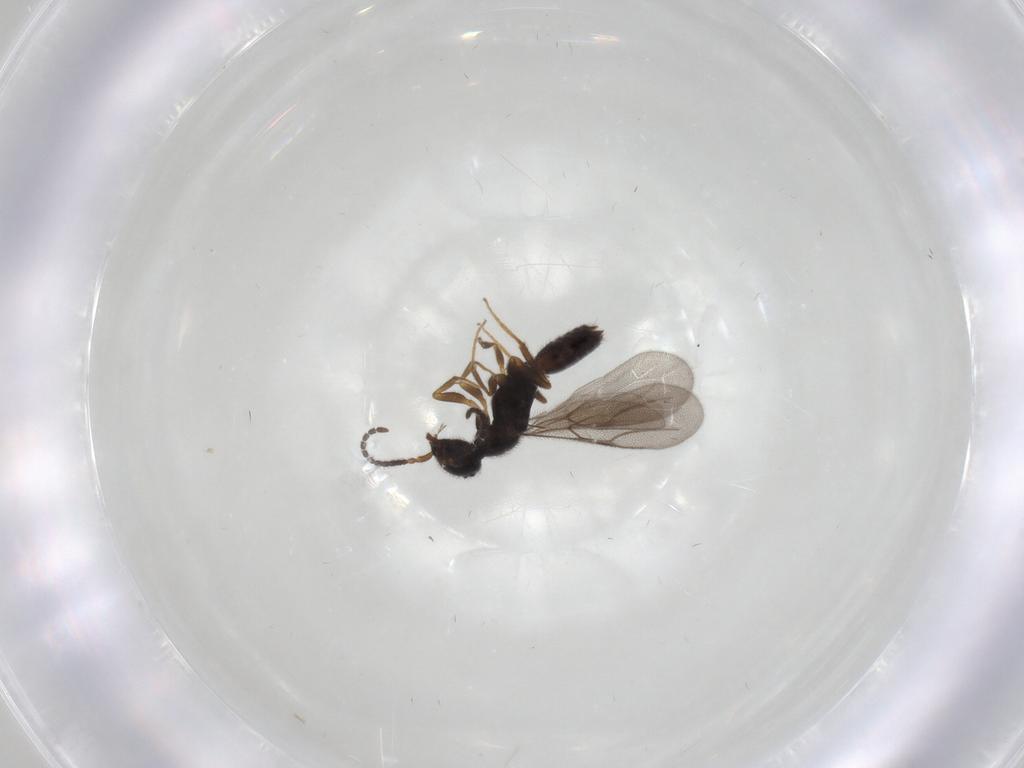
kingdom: Animalia
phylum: Arthropoda
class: Insecta
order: Hymenoptera
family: Bethylidae
